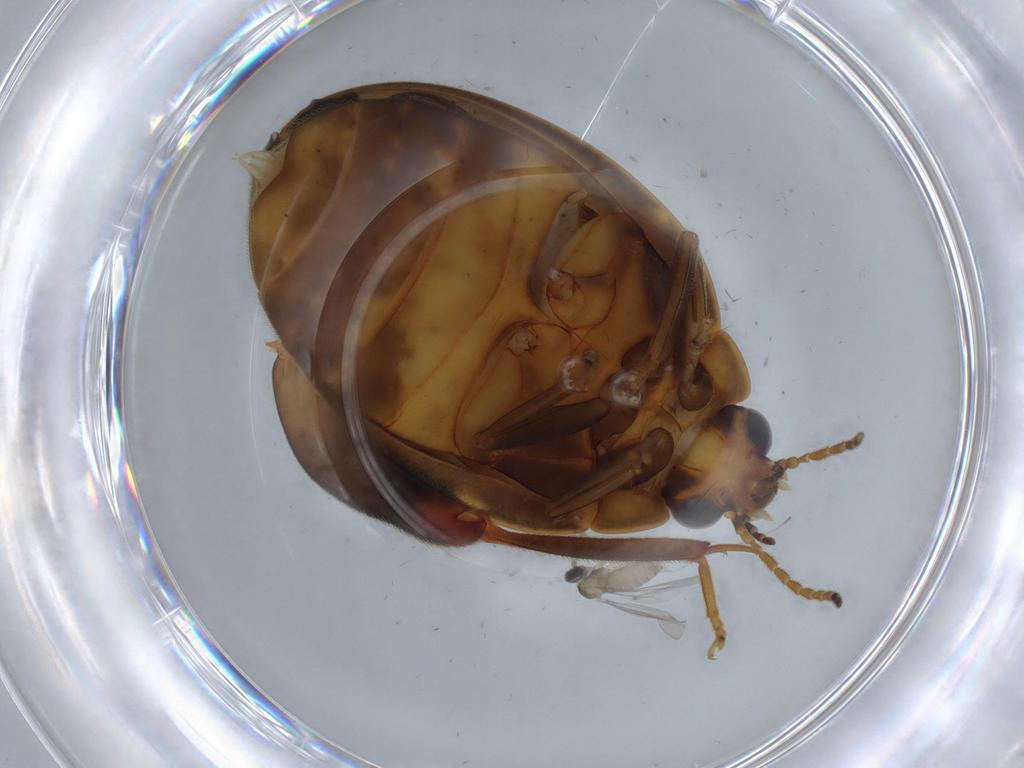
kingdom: Animalia
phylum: Arthropoda
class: Insecta
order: Coleoptera
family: Scirtidae
